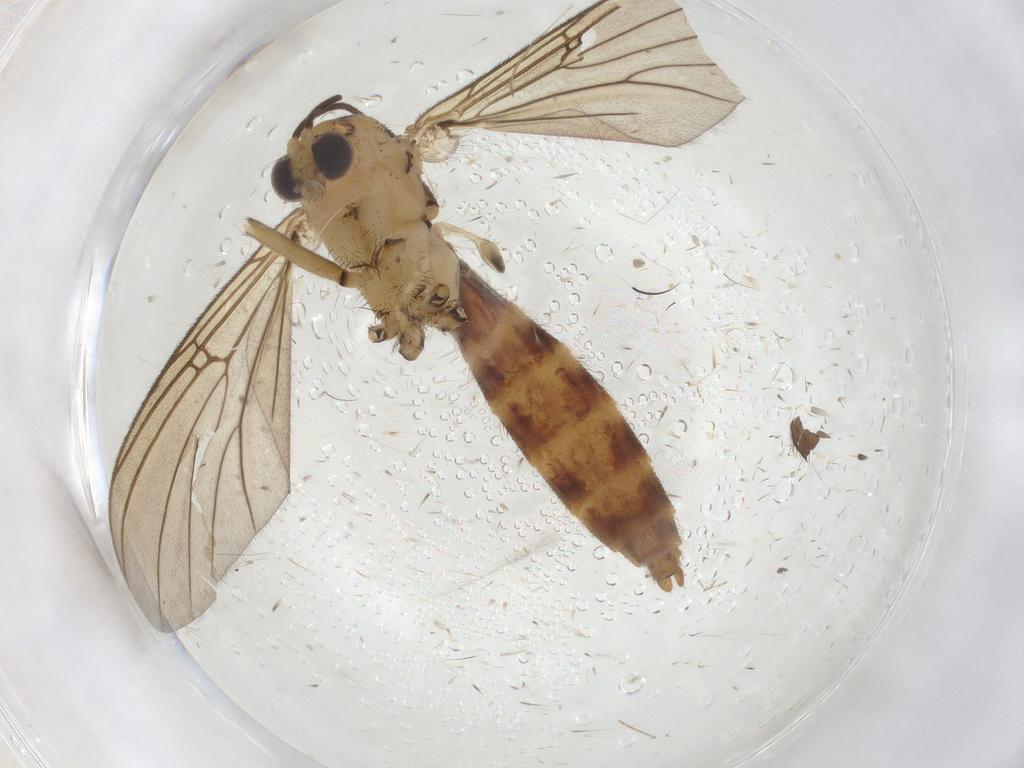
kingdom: Animalia
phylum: Arthropoda
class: Insecta
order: Diptera
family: Mycetophilidae
